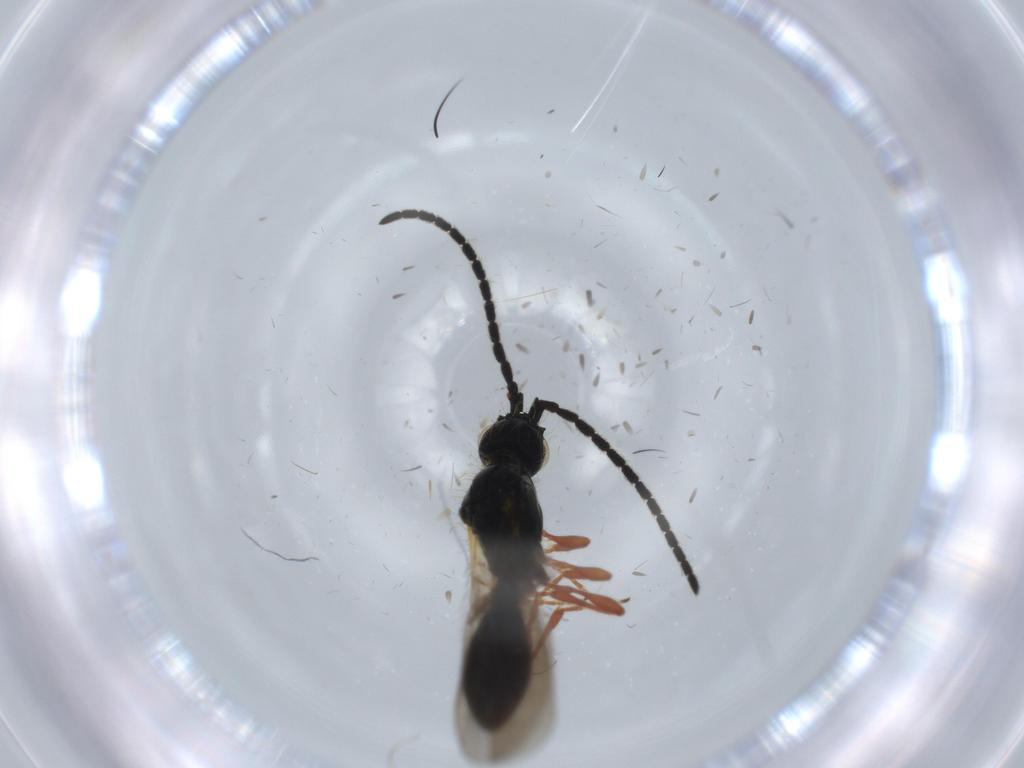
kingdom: Animalia
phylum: Arthropoda
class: Insecta
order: Hymenoptera
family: Diapriidae
